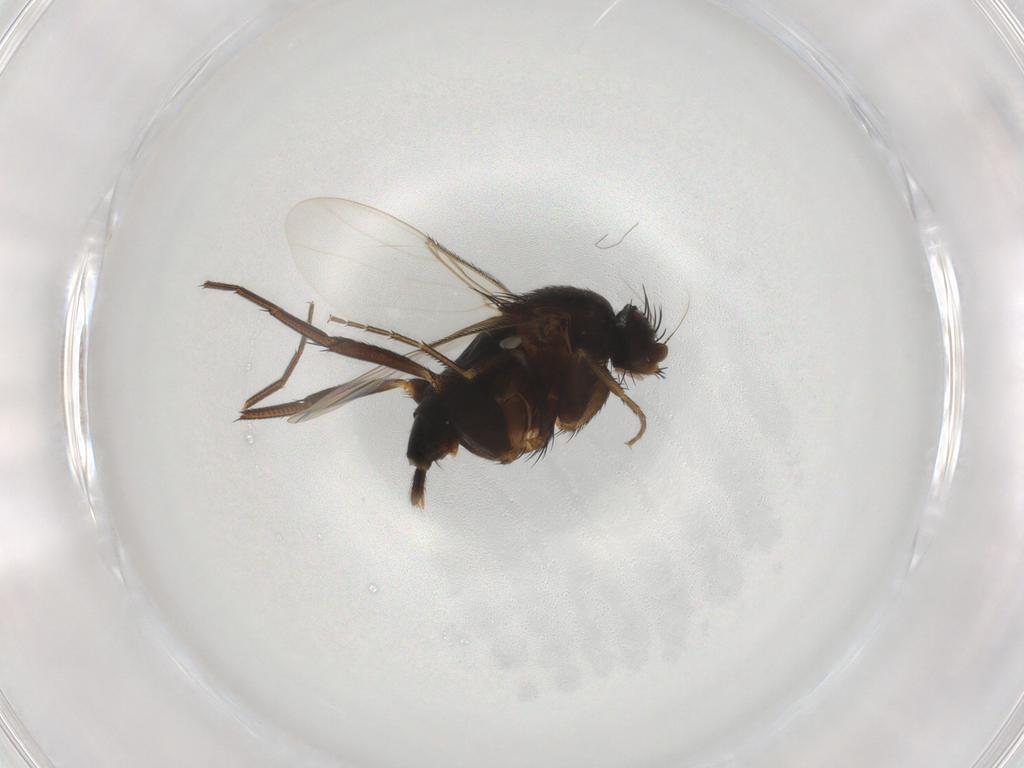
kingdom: Animalia
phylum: Arthropoda
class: Insecta
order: Diptera
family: Phoridae
